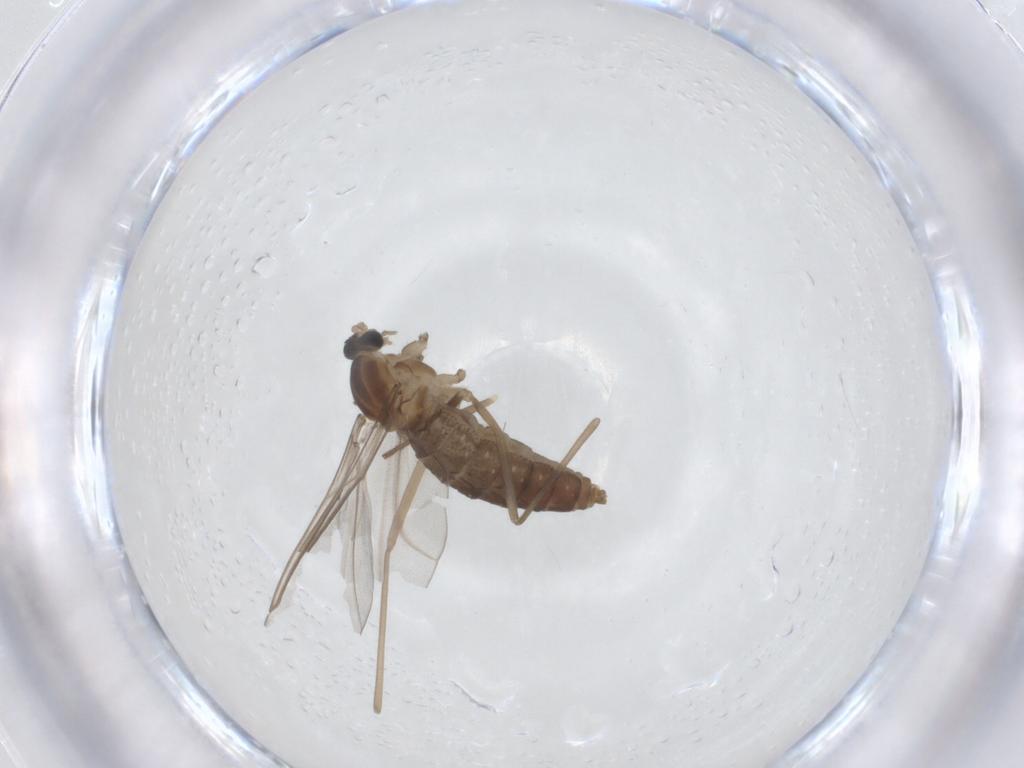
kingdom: Animalia
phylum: Arthropoda
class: Insecta
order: Diptera
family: Cecidomyiidae
